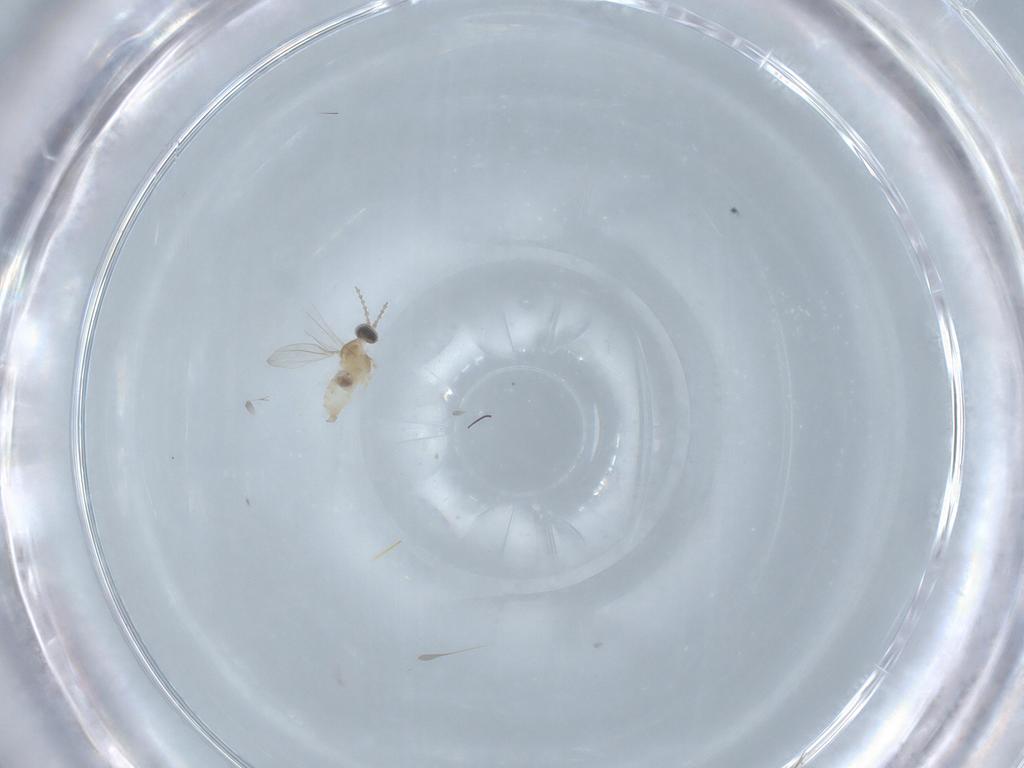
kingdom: Animalia
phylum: Arthropoda
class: Insecta
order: Diptera
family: Cecidomyiidae
